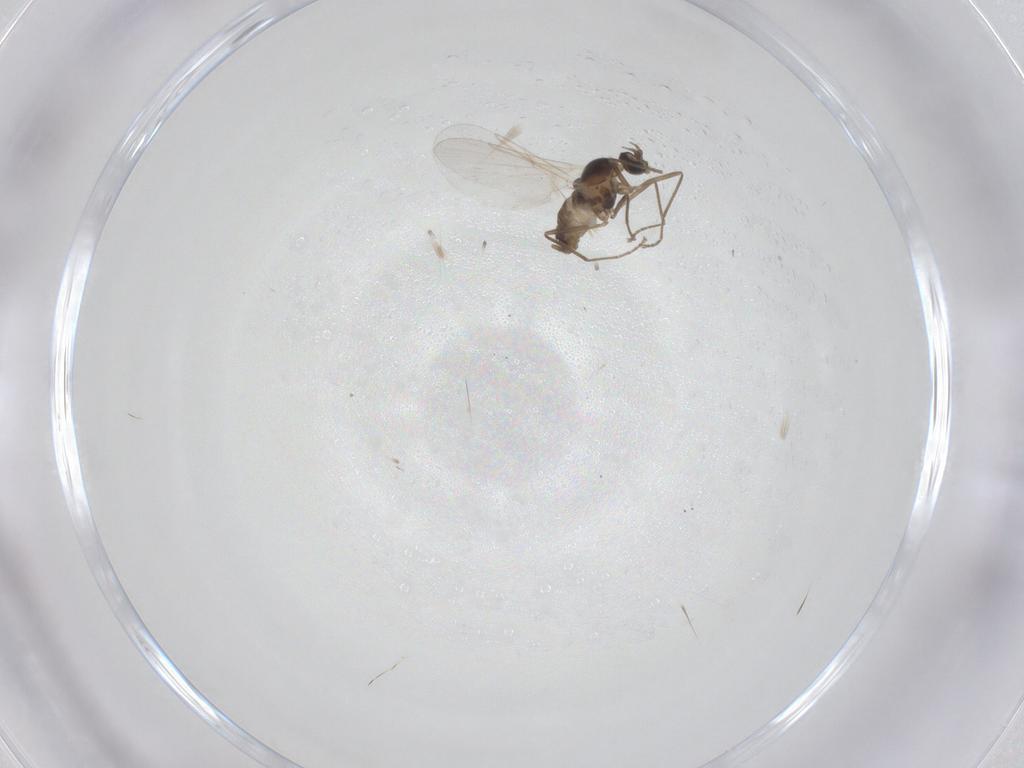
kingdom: Animalia
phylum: Arthropoda
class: Insecta
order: Diptera
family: Cecidomyiidae
